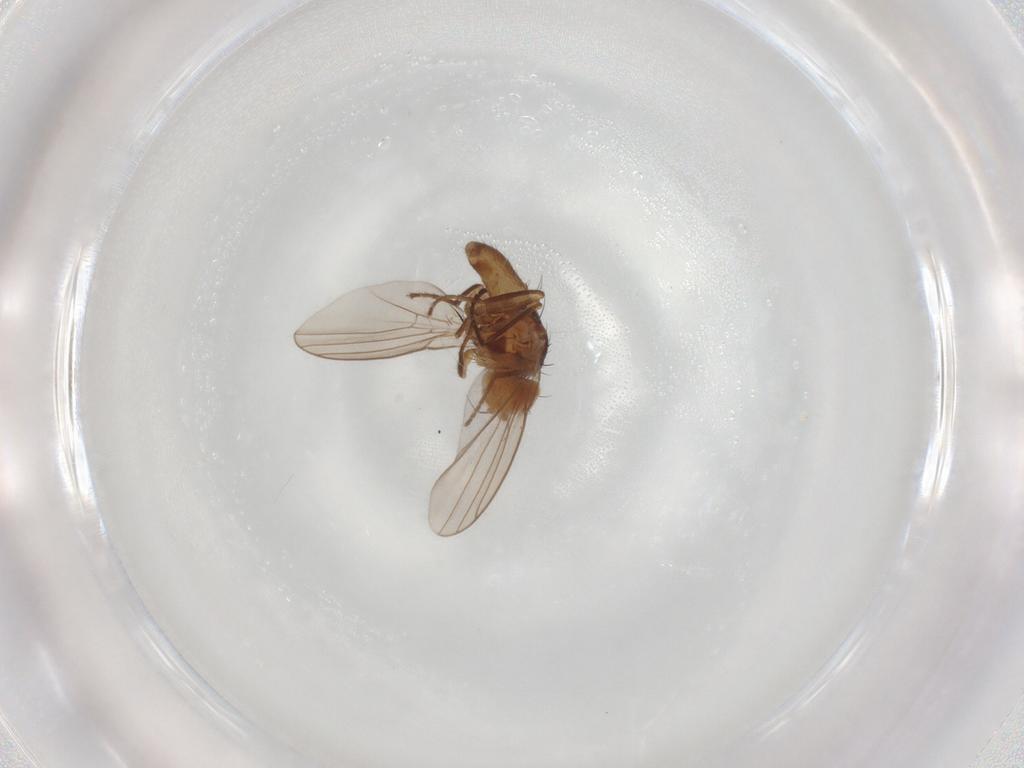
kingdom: Animalia
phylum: Arthropoda
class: Insecta
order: Diptera
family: Agromyzidae
